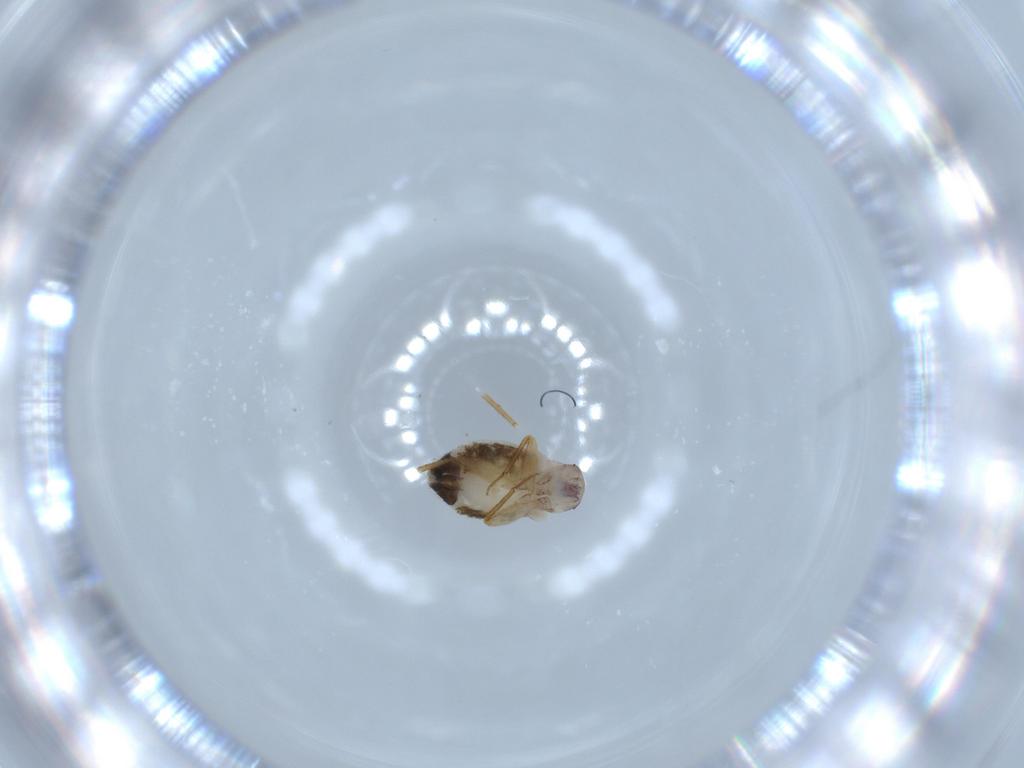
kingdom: Animalia
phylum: Arthropoda
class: Insecta
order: Psocodea
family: Lepidopsocidae
